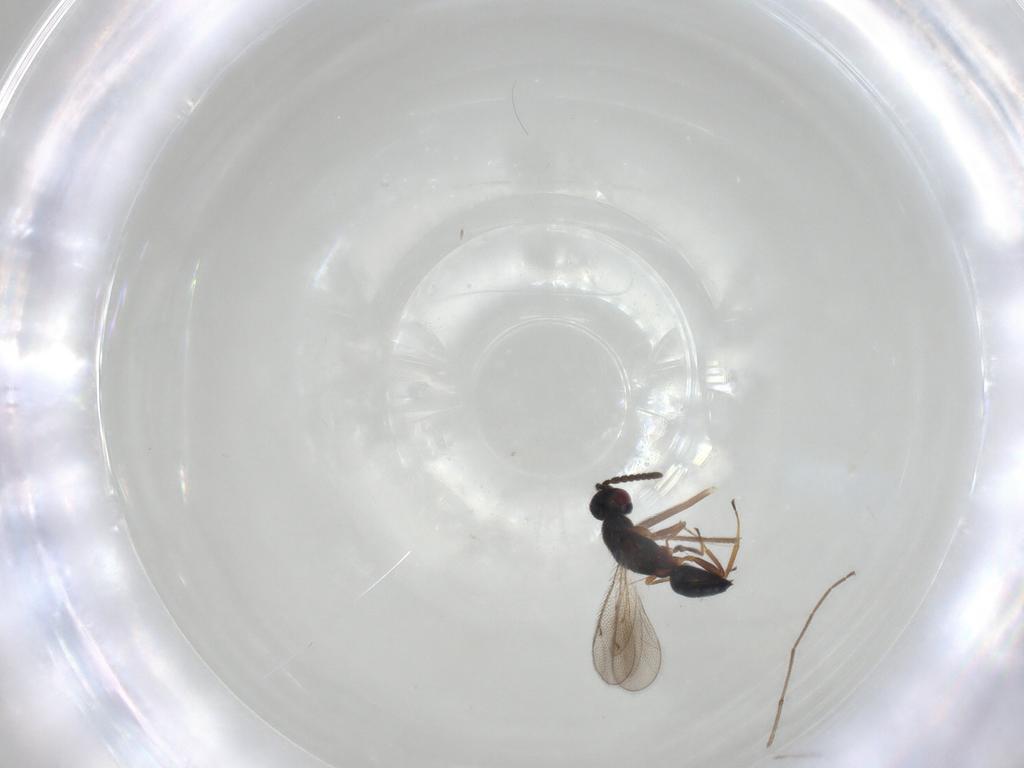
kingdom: Animalia
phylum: Arthropoda
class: Insecta
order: Hymenoptera
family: Tetracampidae
